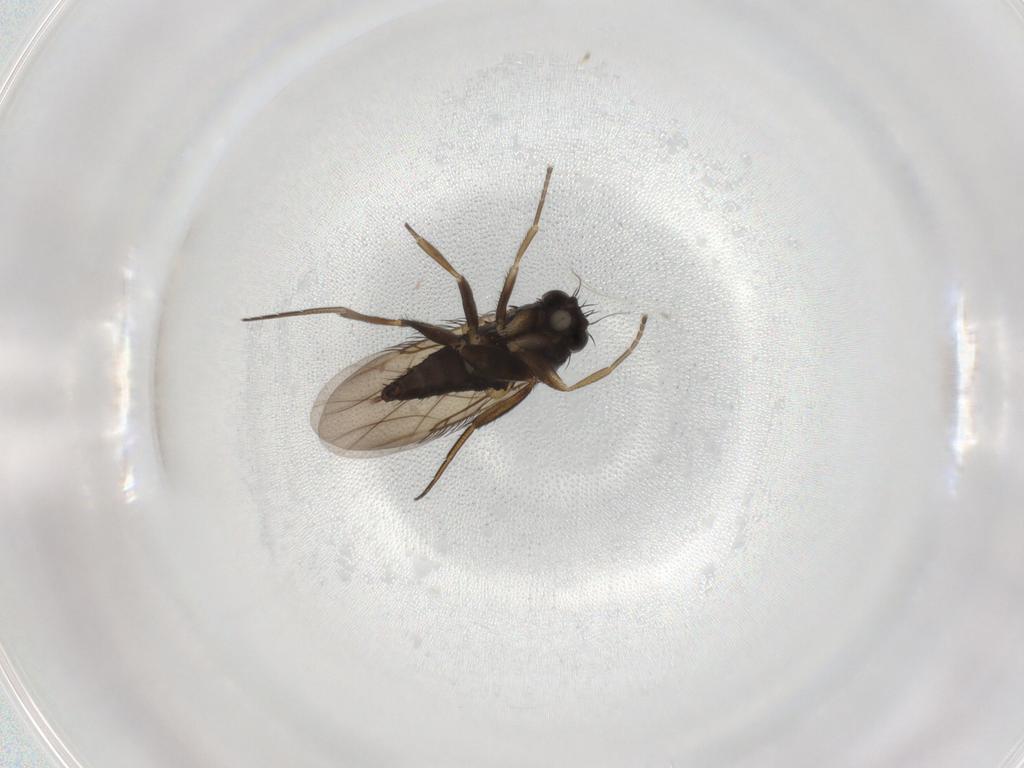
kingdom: Animalia
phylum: Arthropoda
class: Insecta
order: Diptera
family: Phoridae
